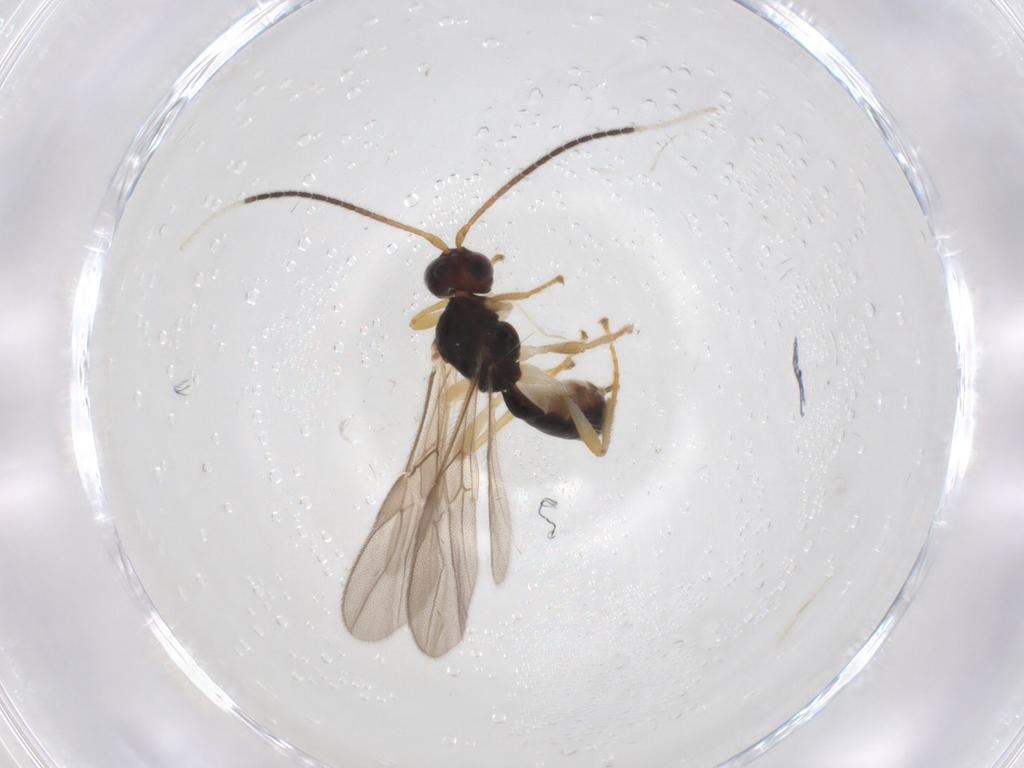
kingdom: Animalia
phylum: Arthropoda
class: Insecta
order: Hymenoptera
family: Braconidae
